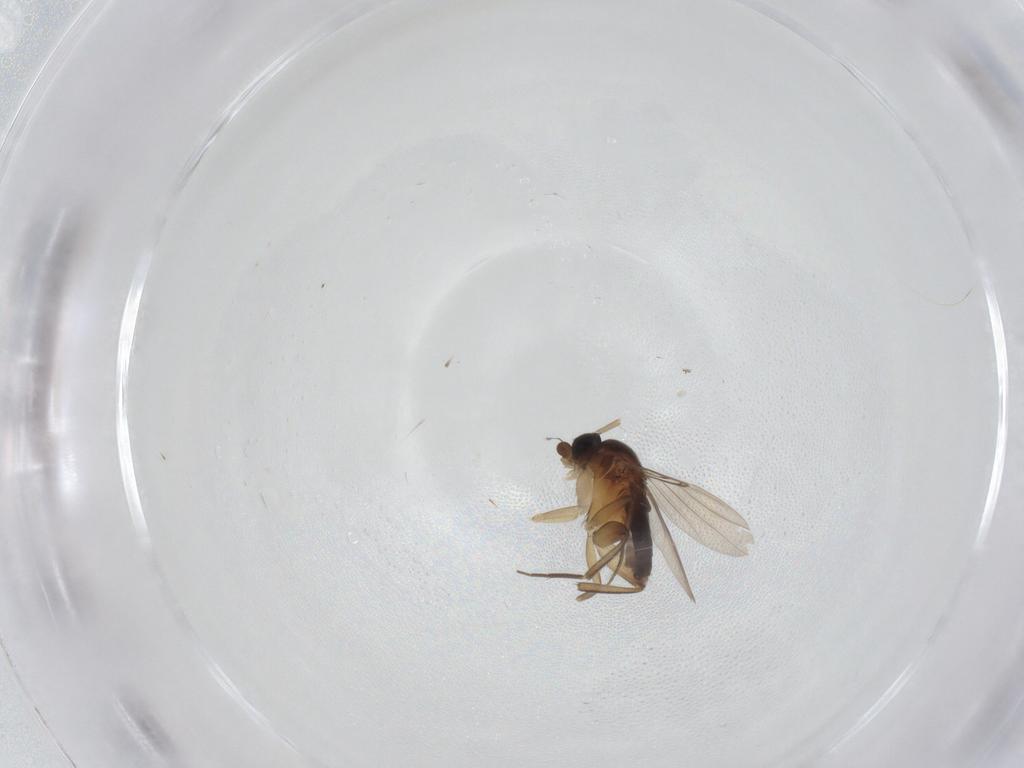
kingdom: Animalia
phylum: Arthropoda
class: Insecta
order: Diptera
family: Phoridae
